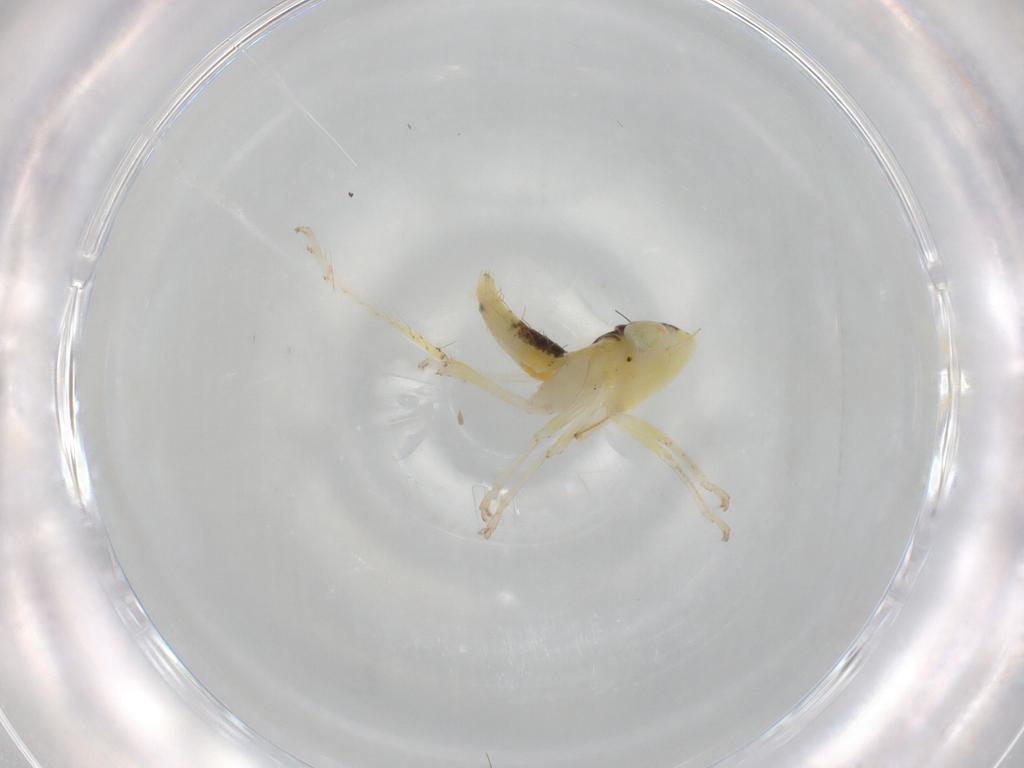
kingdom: Animalia
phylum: Arthropoda
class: Insecta
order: Hemiptera
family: Cicadellidae
